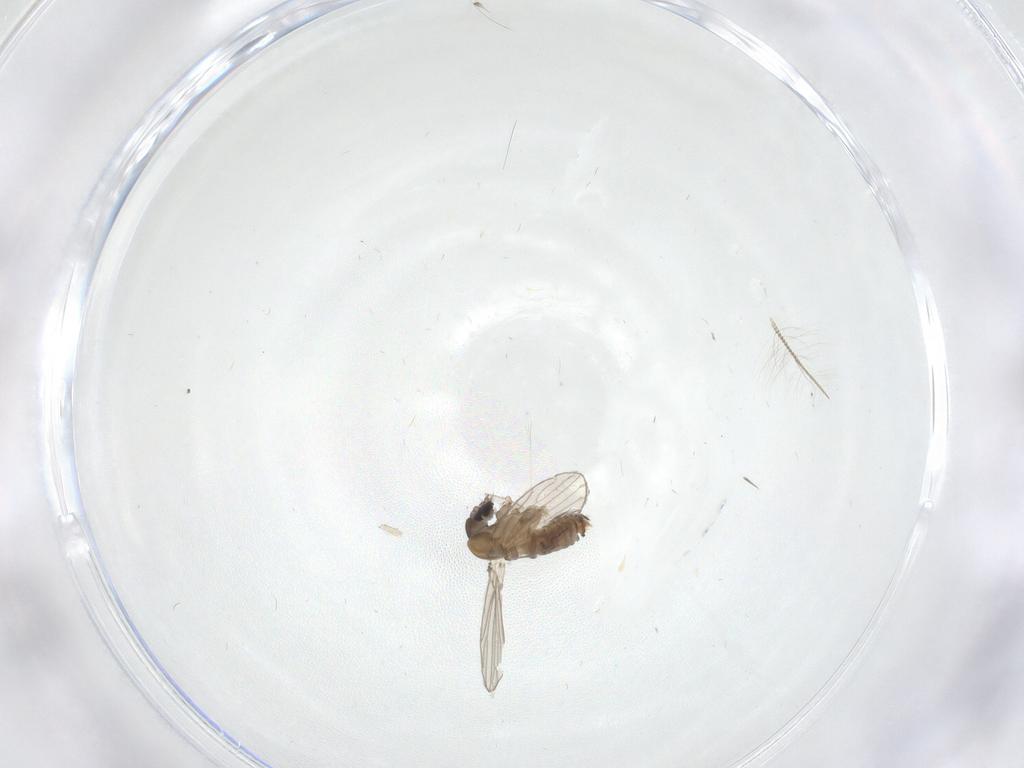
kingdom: Animalia
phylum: Arthropoda
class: Insecta
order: Diptera
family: Psychodidae
